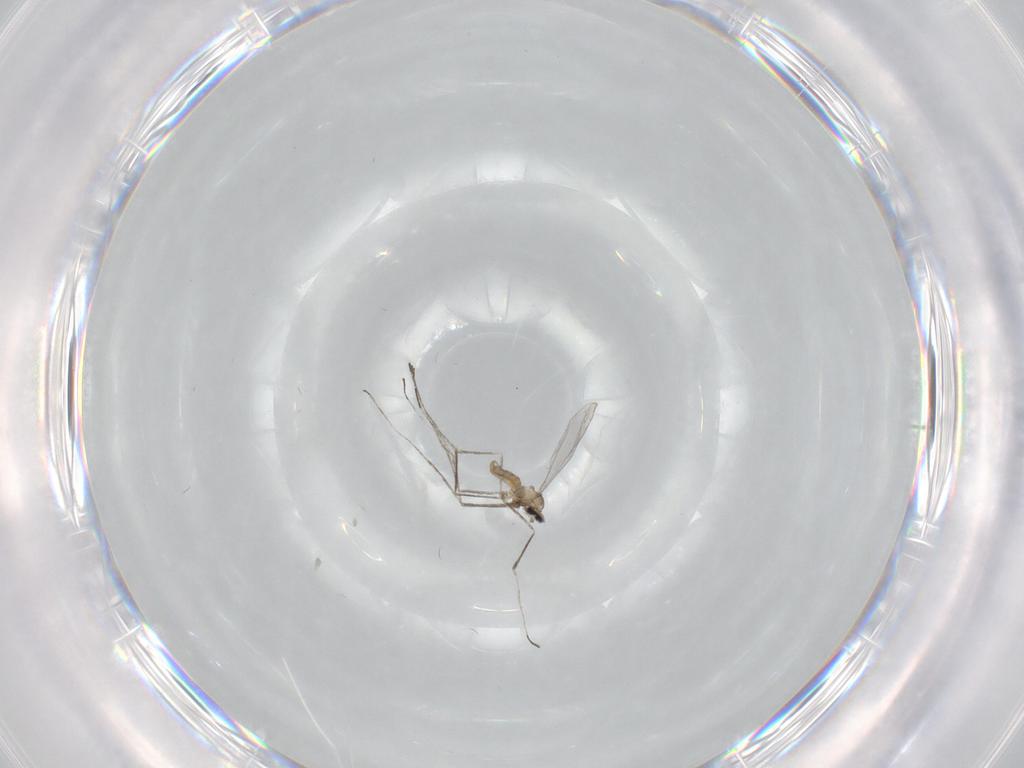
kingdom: Animalia
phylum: Arthropoda
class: Insecta
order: Diptera
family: Cecidomyiidae
